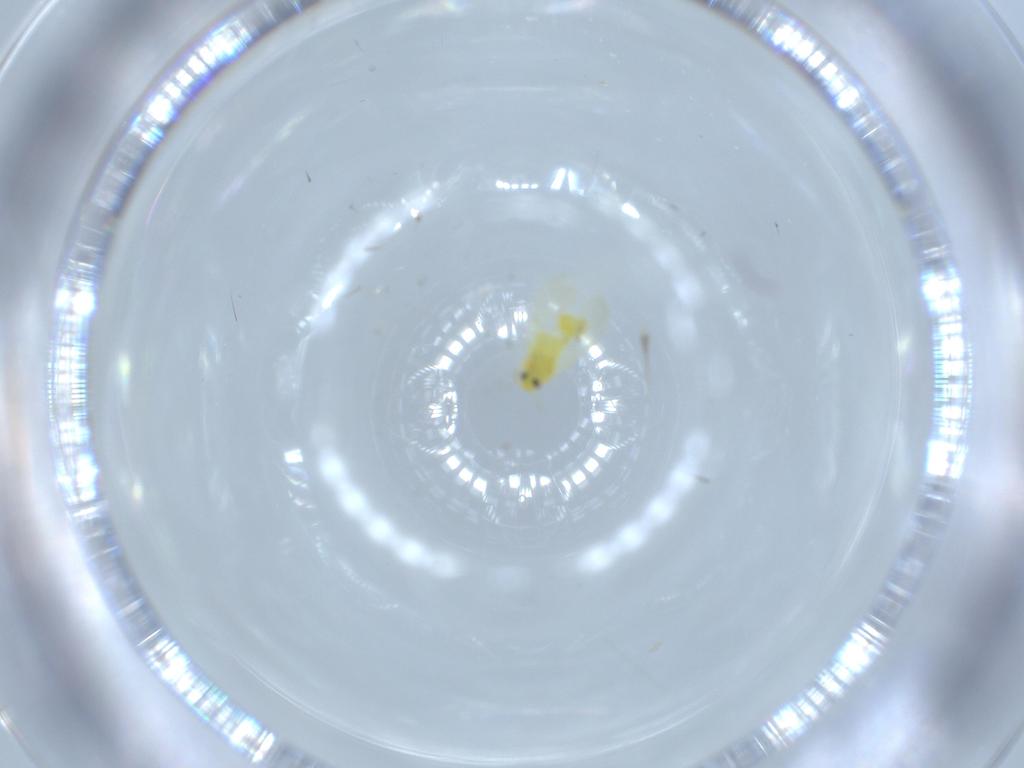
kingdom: Animalia
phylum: Arthropoda
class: Insecta
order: Hemiptera
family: Aleyrodidae
